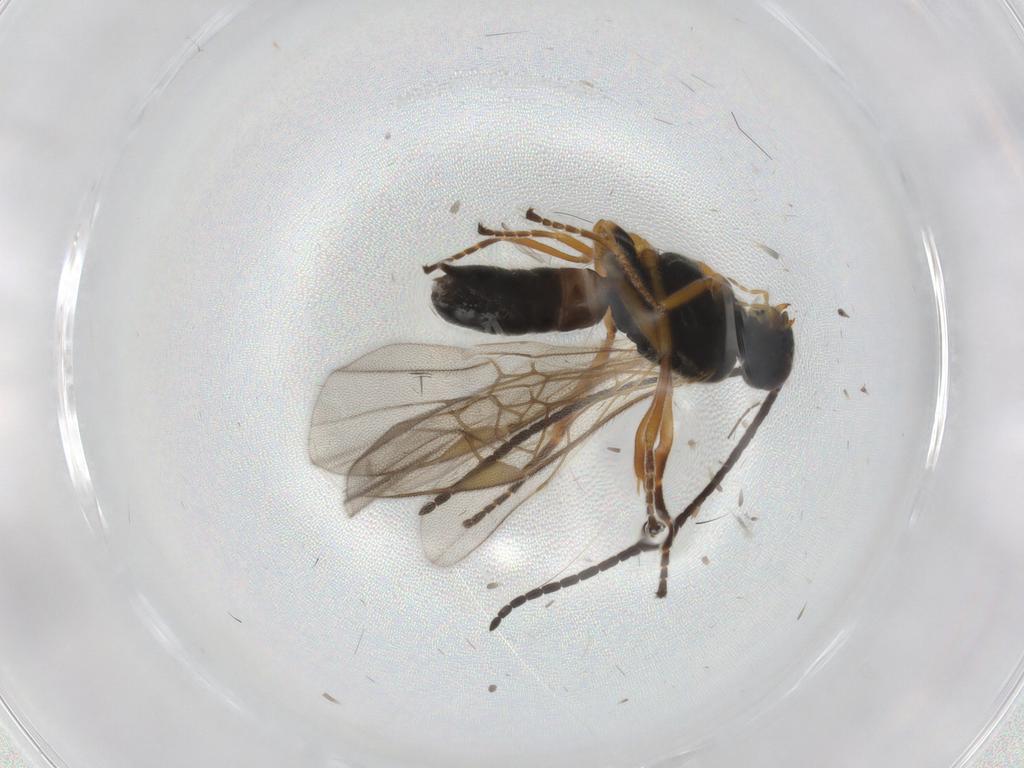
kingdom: Animalia
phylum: Arthropoda
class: Insecta
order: Hymenoptera
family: Braconidae
